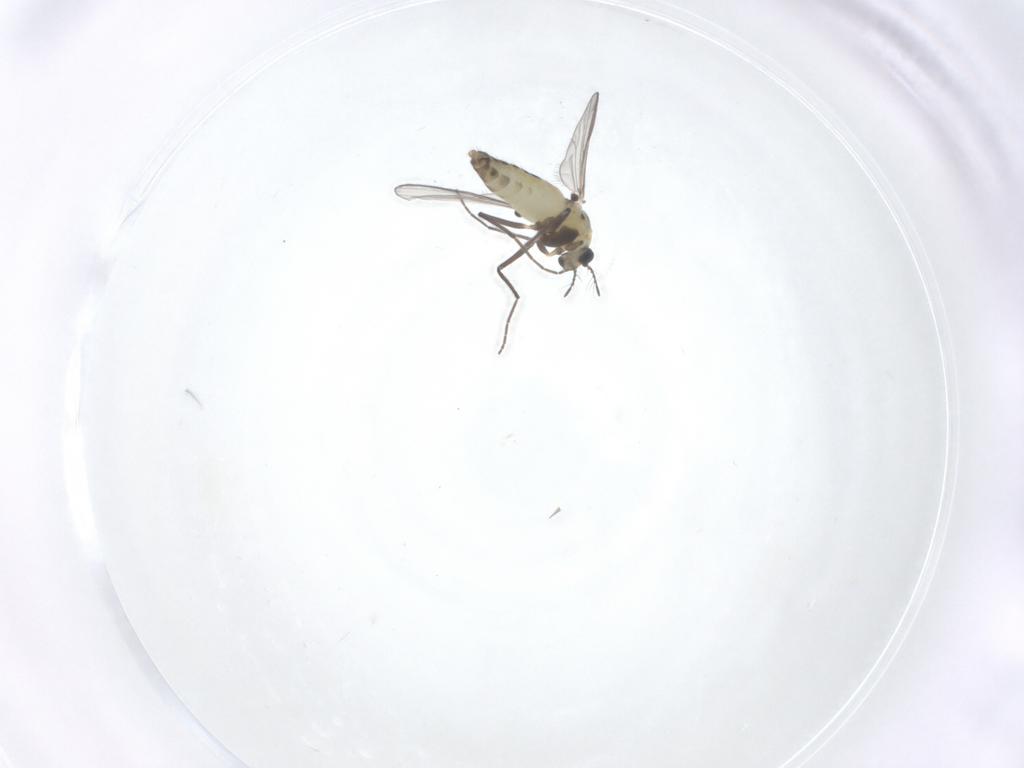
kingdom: Animalia
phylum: Arthropoda
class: Insecta
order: Diptera
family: Chironomidae
